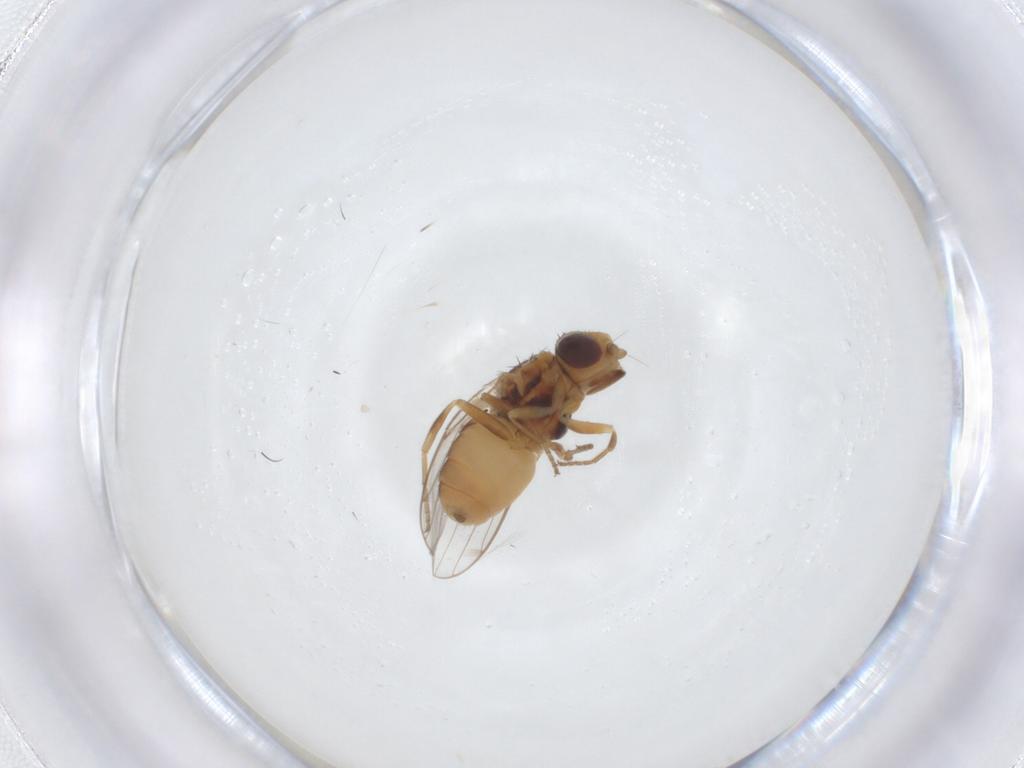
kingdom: Animalia
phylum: Arthropoda
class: Insecta
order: Diptera
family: Chloropidae
